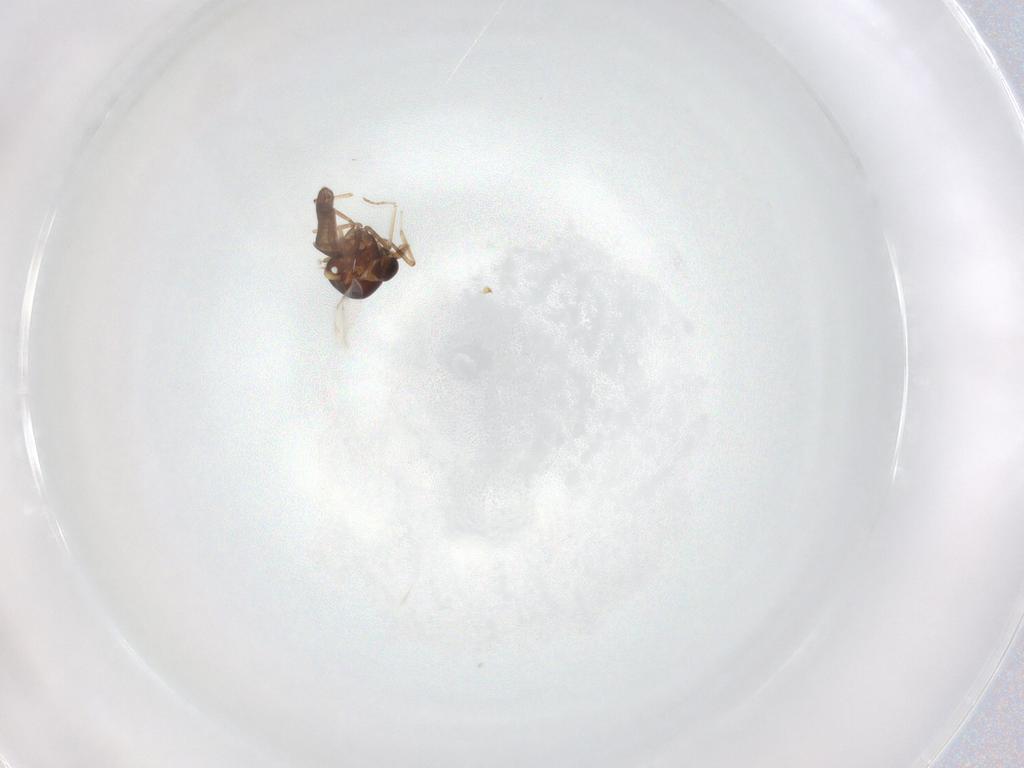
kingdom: Animalia
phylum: Arthropoda
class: Insecta
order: Diptera
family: Ceratopogonidae
